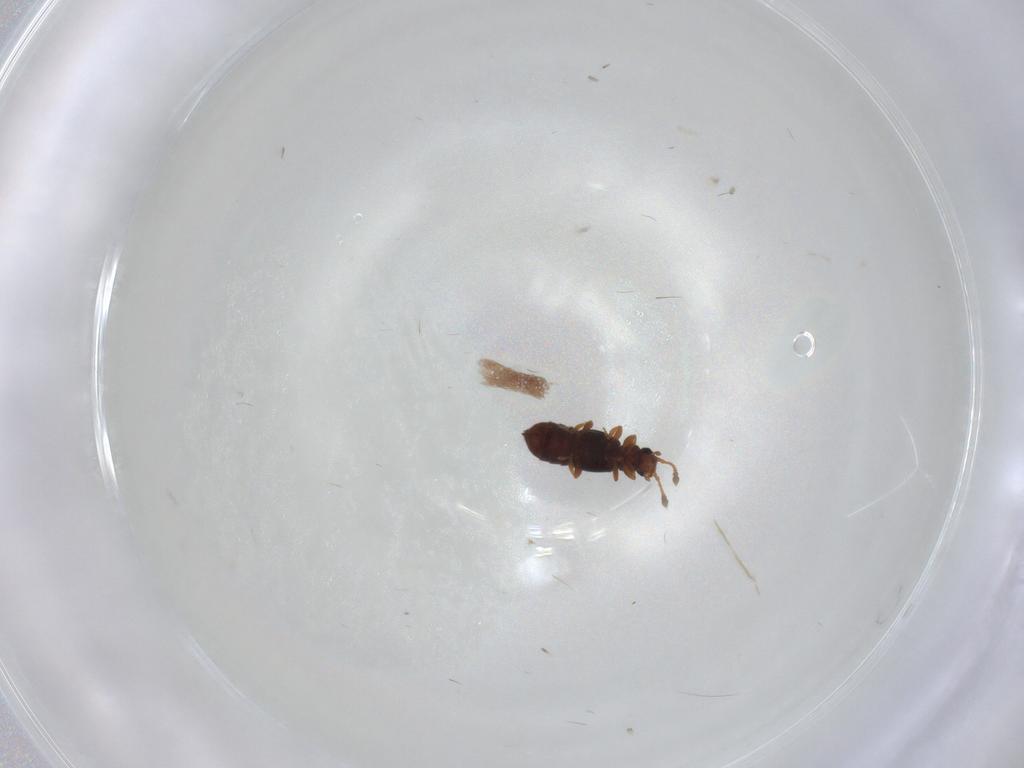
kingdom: Animalia
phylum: Arthropoda
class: Insecta
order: Coleoptera
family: Staphylinidae
